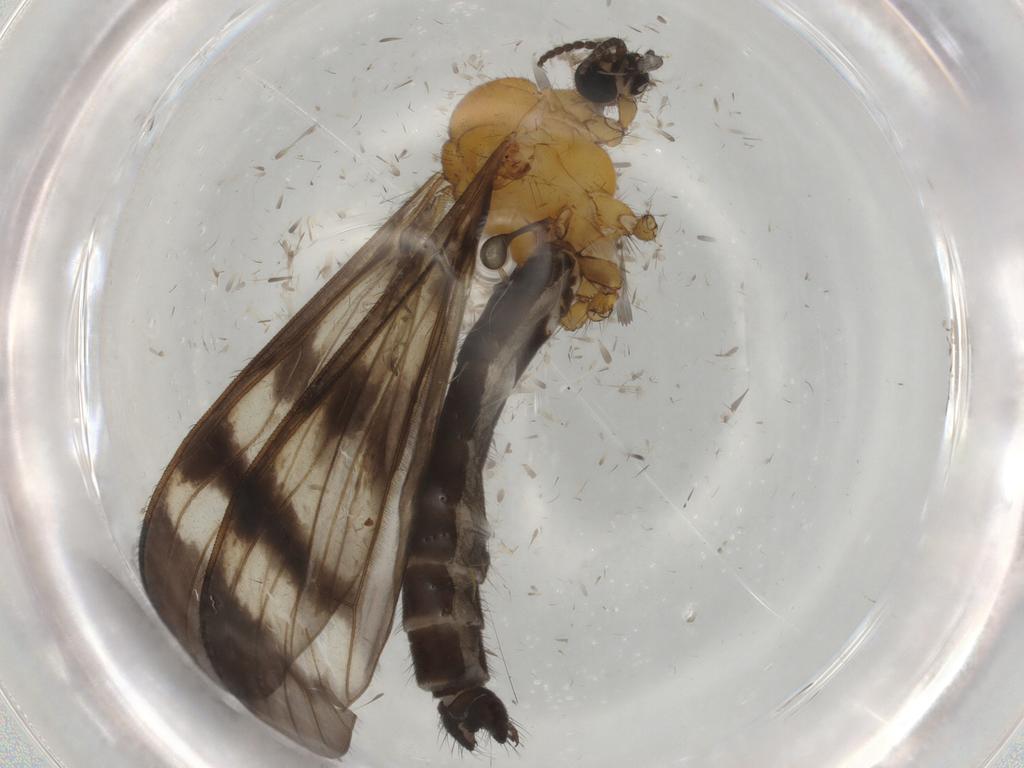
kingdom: Animalia
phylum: Arthropoda
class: Insecta
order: Diptera
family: Limoniidae
